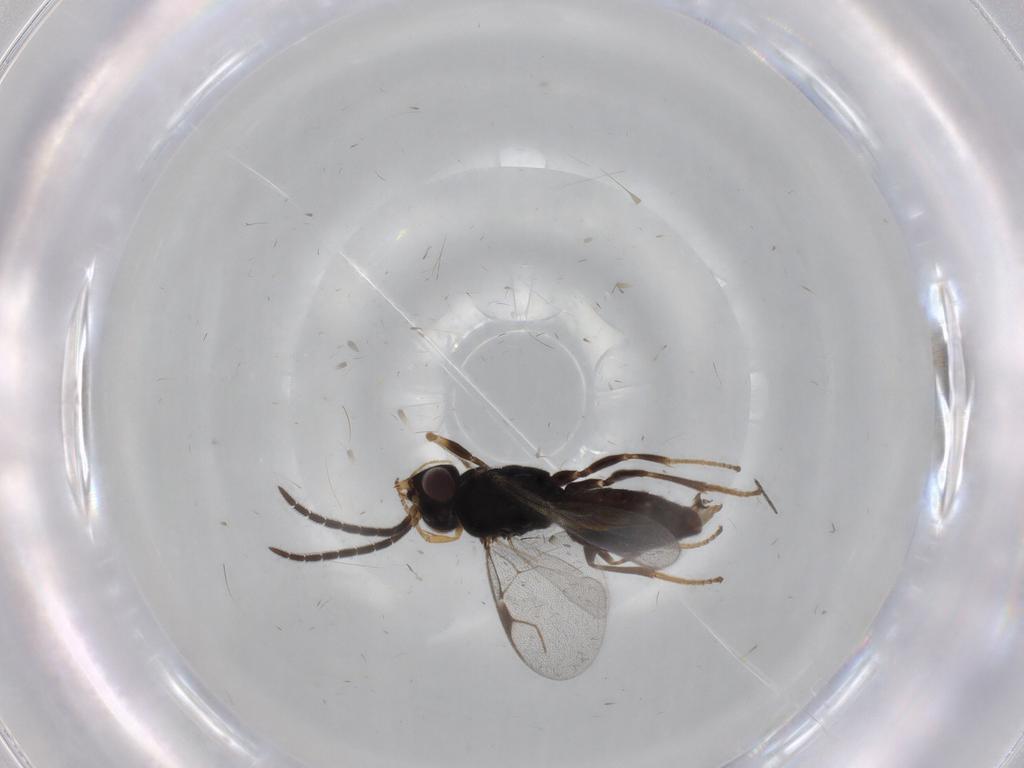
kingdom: Animalia
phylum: Arthropoda
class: Insecta
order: Hymenoptera
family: Dryinidae
